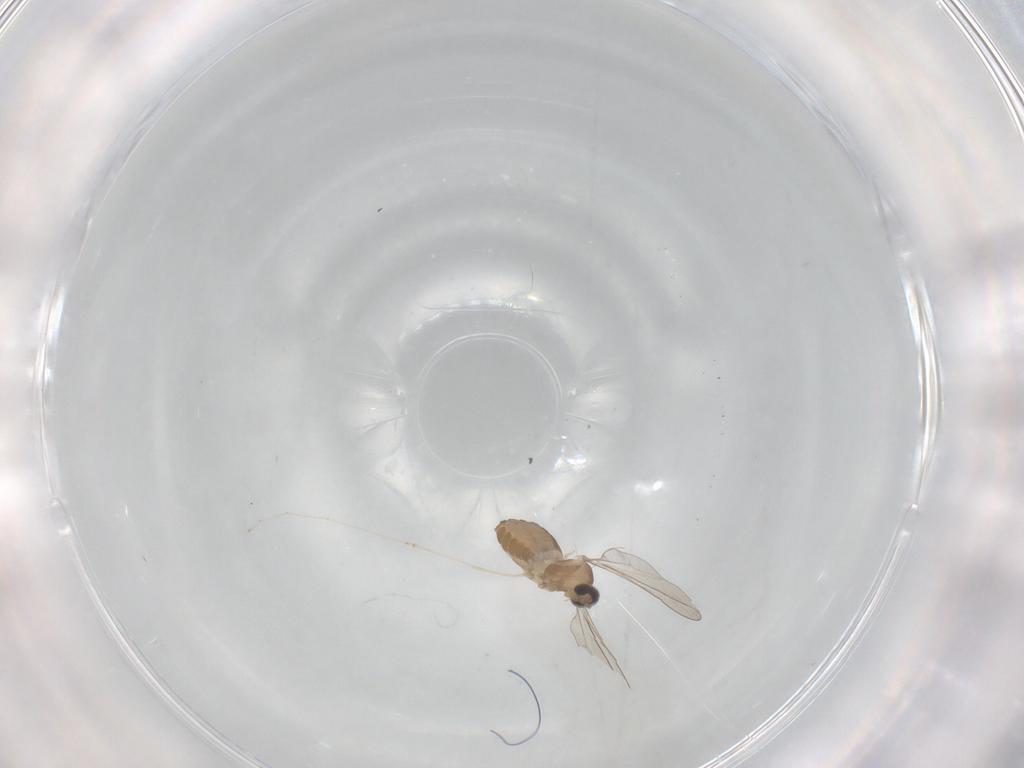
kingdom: Animalia
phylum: Arthropoda
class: Insecta
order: Diptera
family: Cecidomyiidae
